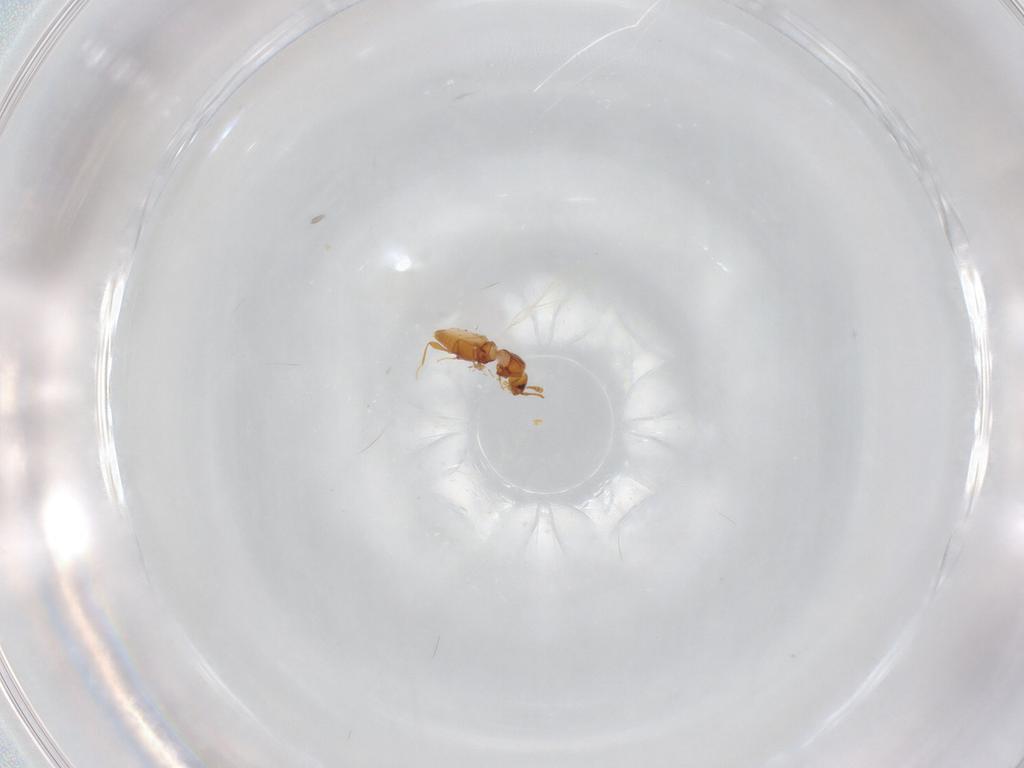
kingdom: Animalia
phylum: Arthropoda
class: Insecta
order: Coleoptera
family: Staphylinidae
